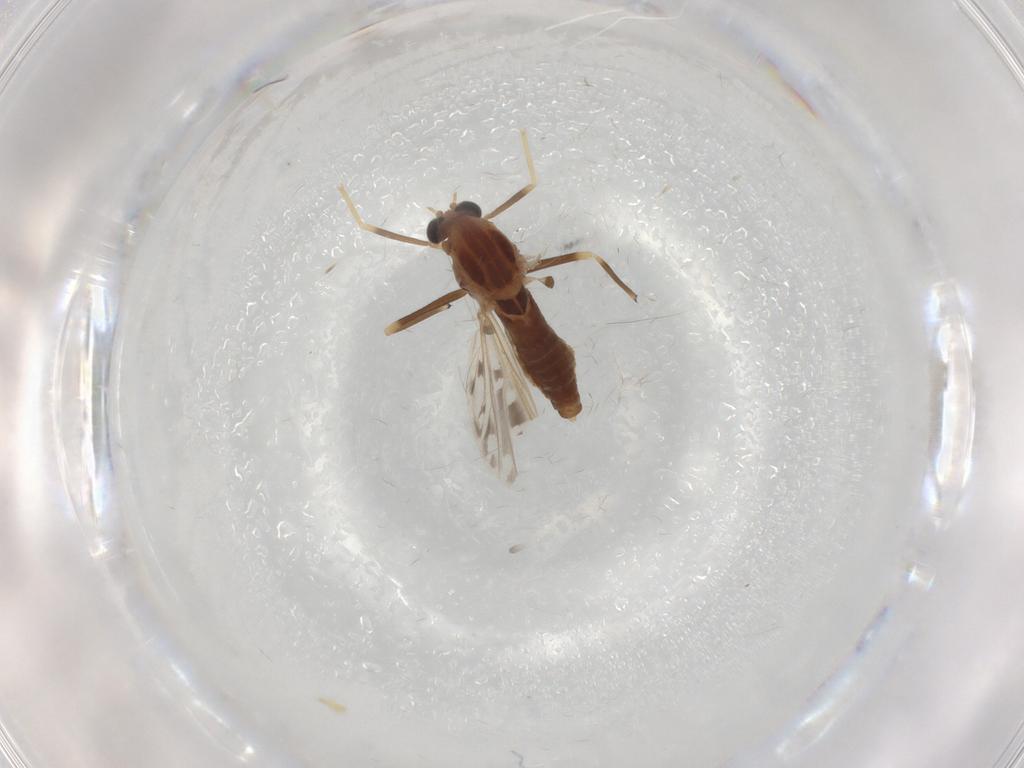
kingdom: Animalia
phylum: Arthropoda
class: Insecta
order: Diptera
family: Chironomidae
